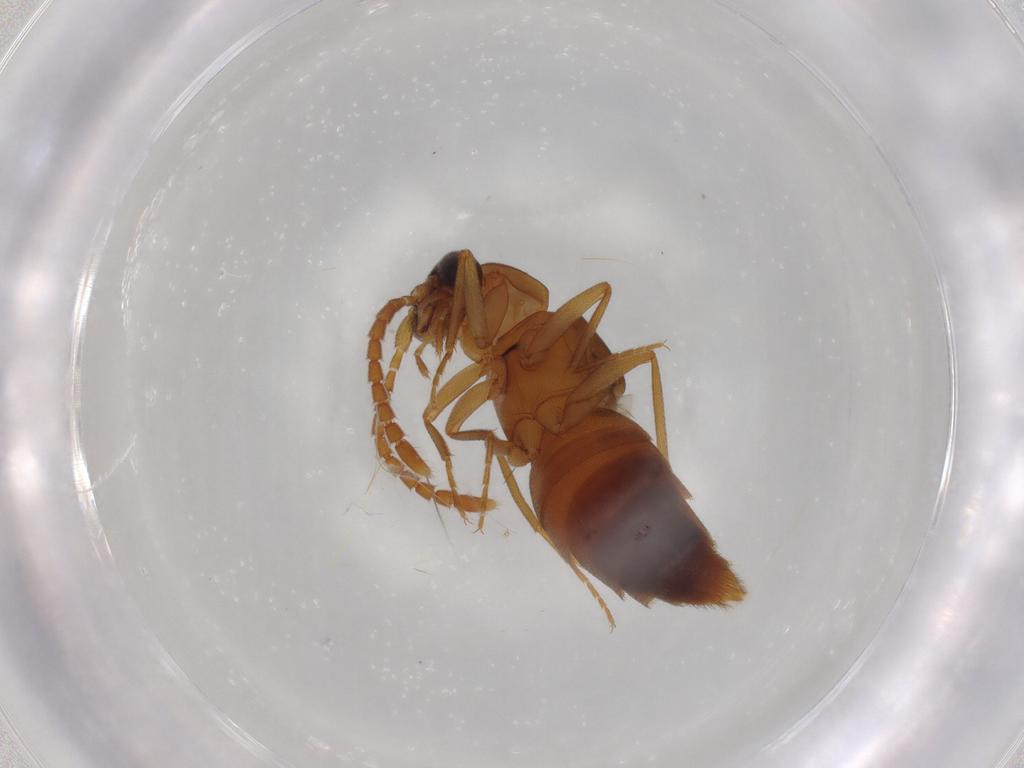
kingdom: Animalia
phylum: Arthropoda
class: Insecta
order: Coleoptera
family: Staphylinidae
